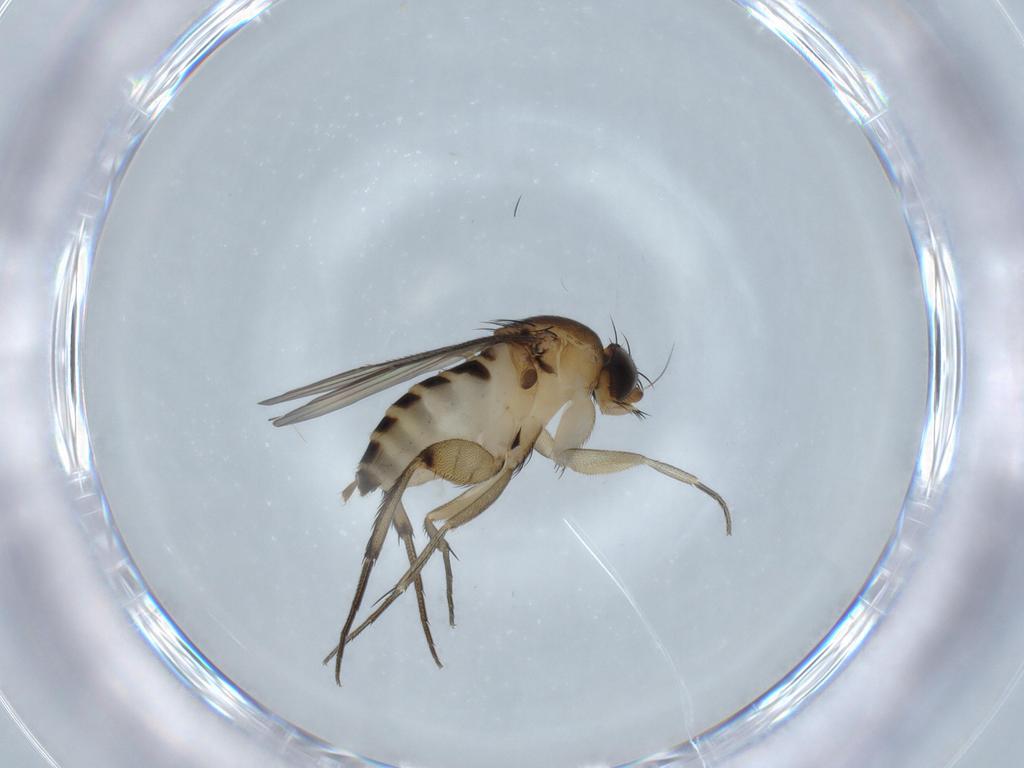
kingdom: Animalia
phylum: Arthropoda
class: Insecta
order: Diptera
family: Phoridae
